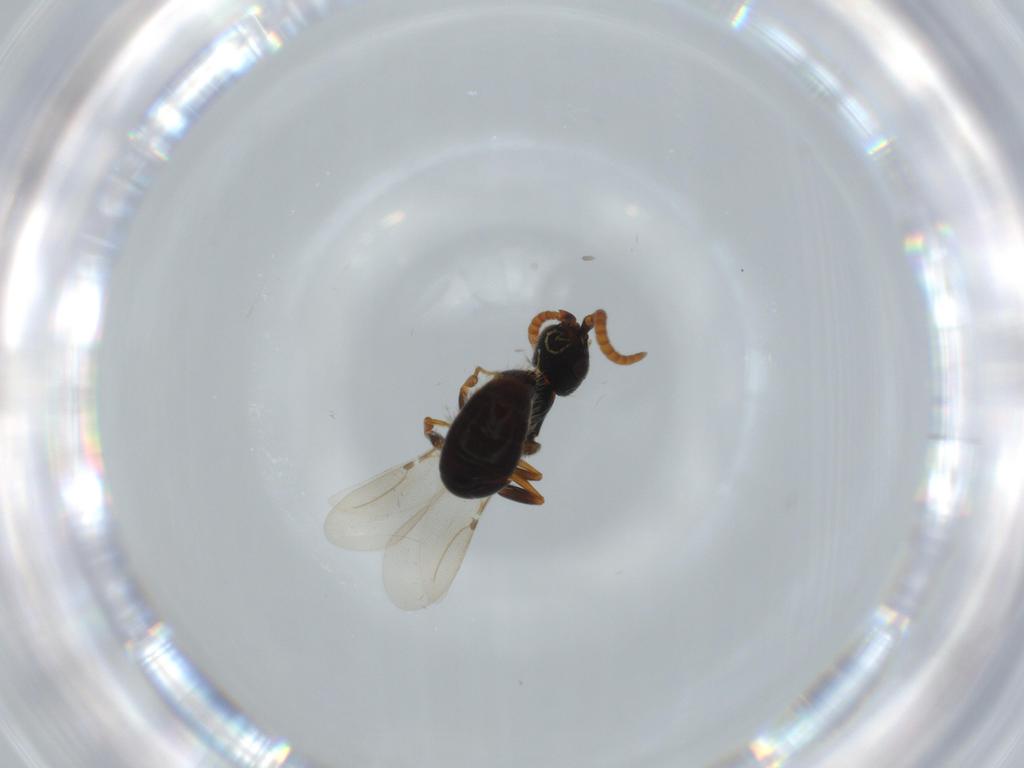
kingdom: Animalia
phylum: Arthropoda
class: Insecta
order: Hymenoptera
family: Bethylidae
